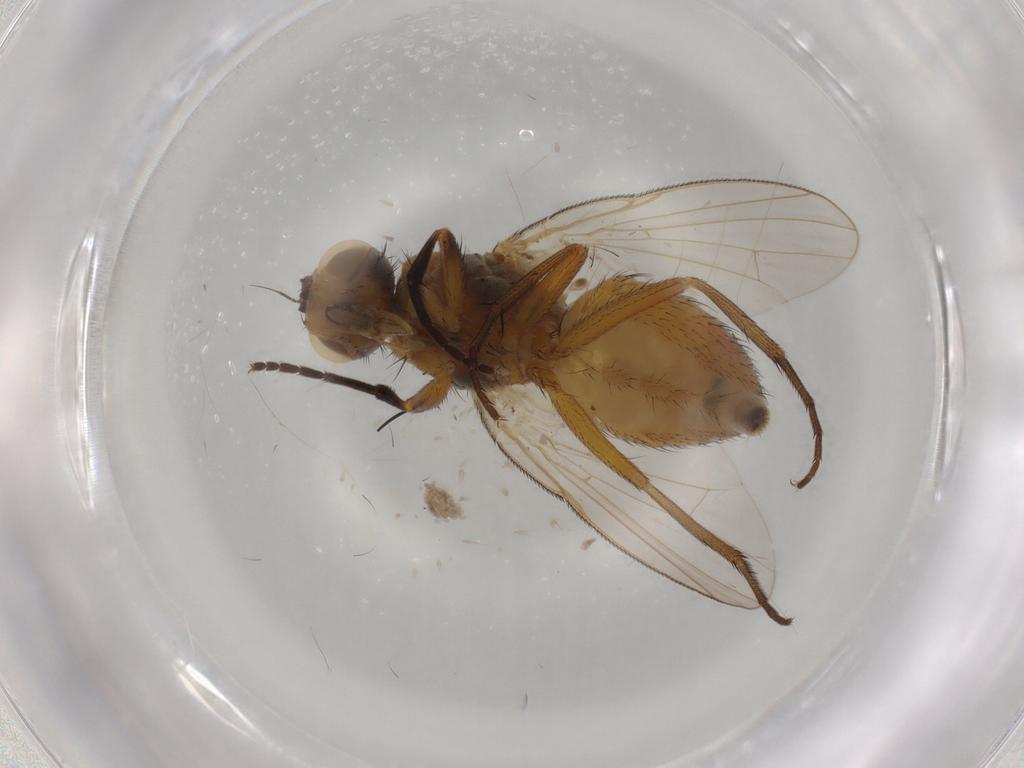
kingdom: Animalia
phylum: Arthropoda
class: Insecta
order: Diptera
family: Muscidae
